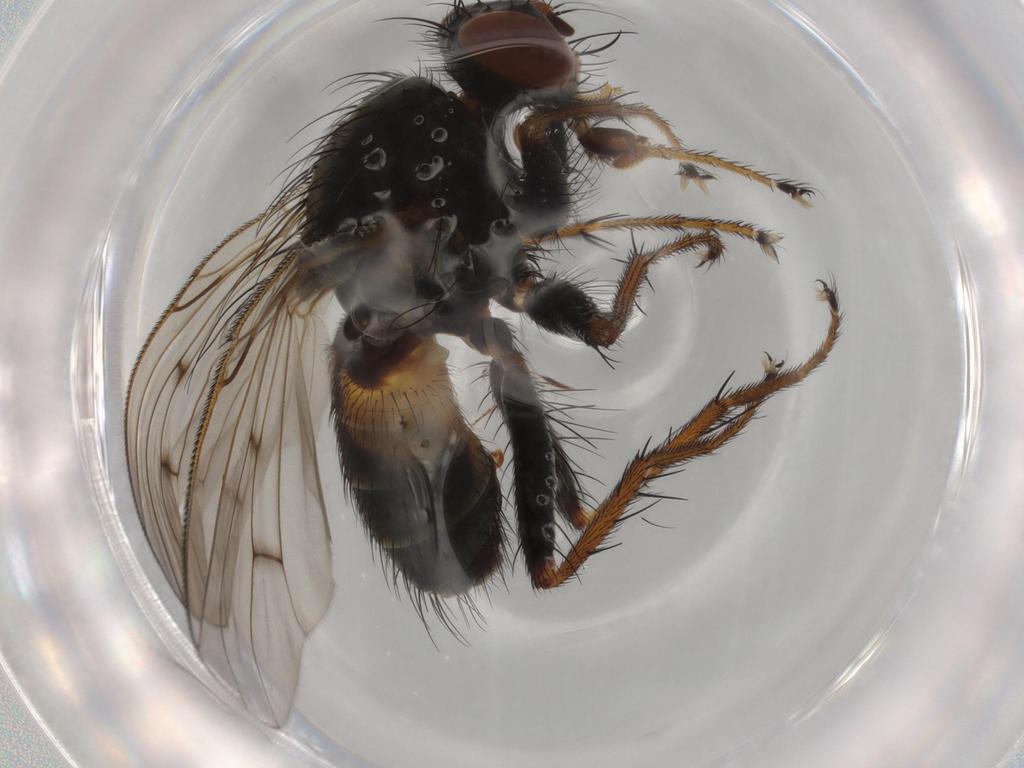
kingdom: Animalia
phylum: Arthropoda
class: Insecta
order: Diptera
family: Muscidae
